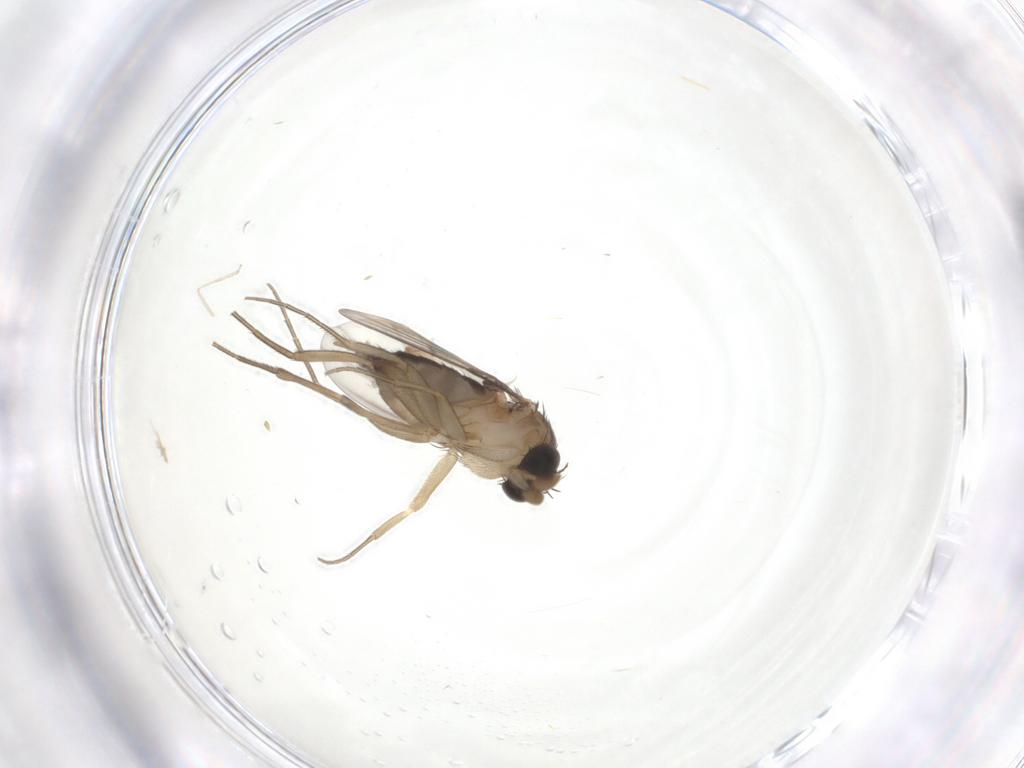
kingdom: Animalia
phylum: Arthropoda
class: Insecta
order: Diptera
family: Phoridae
